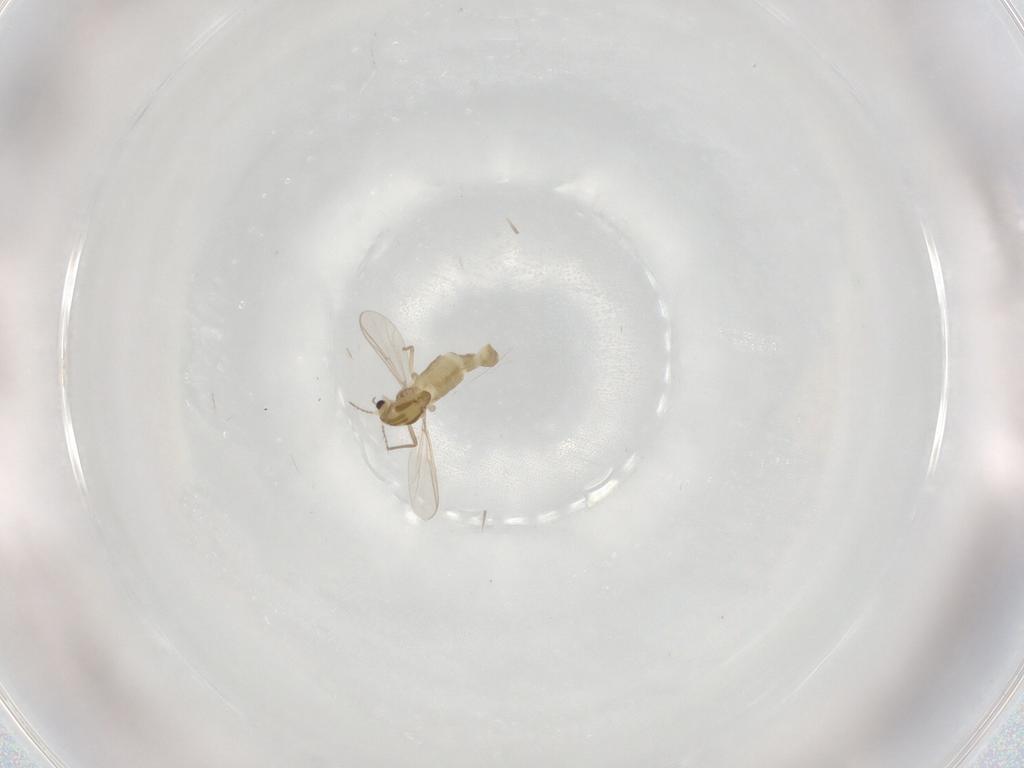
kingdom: Animalia
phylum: Arthropoda
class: Insecta
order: Diptera
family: Chironomidae
